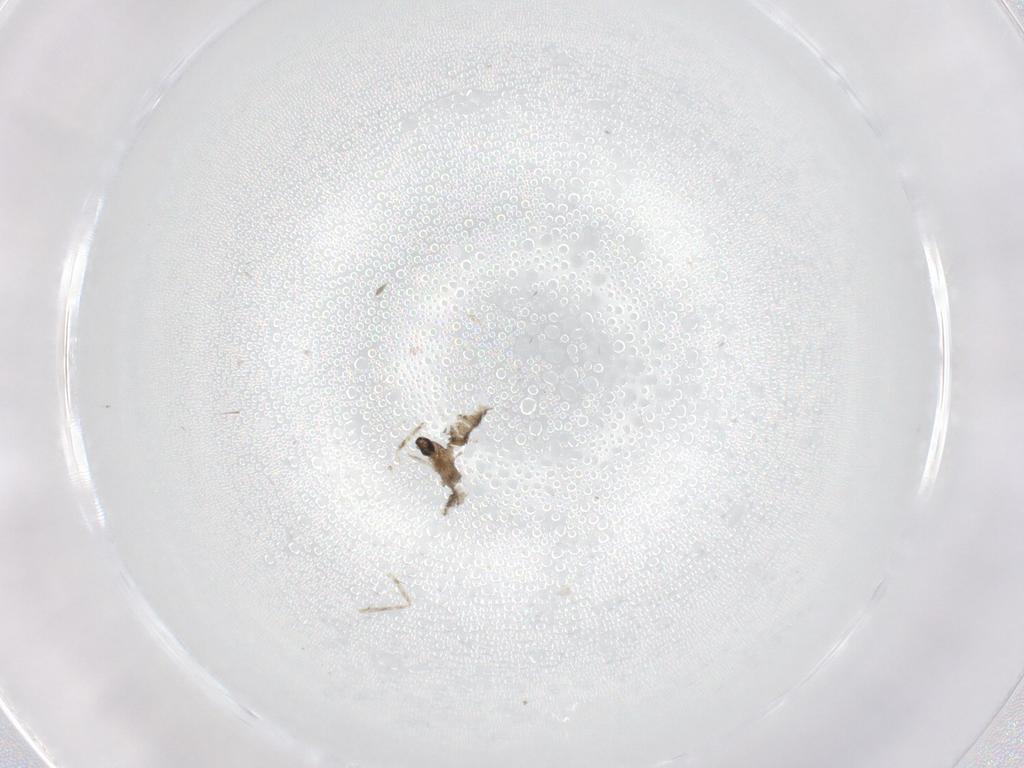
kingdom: Animalia
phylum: Arthropoda
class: Insecta
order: Diptera
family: Cecidomyiidae
